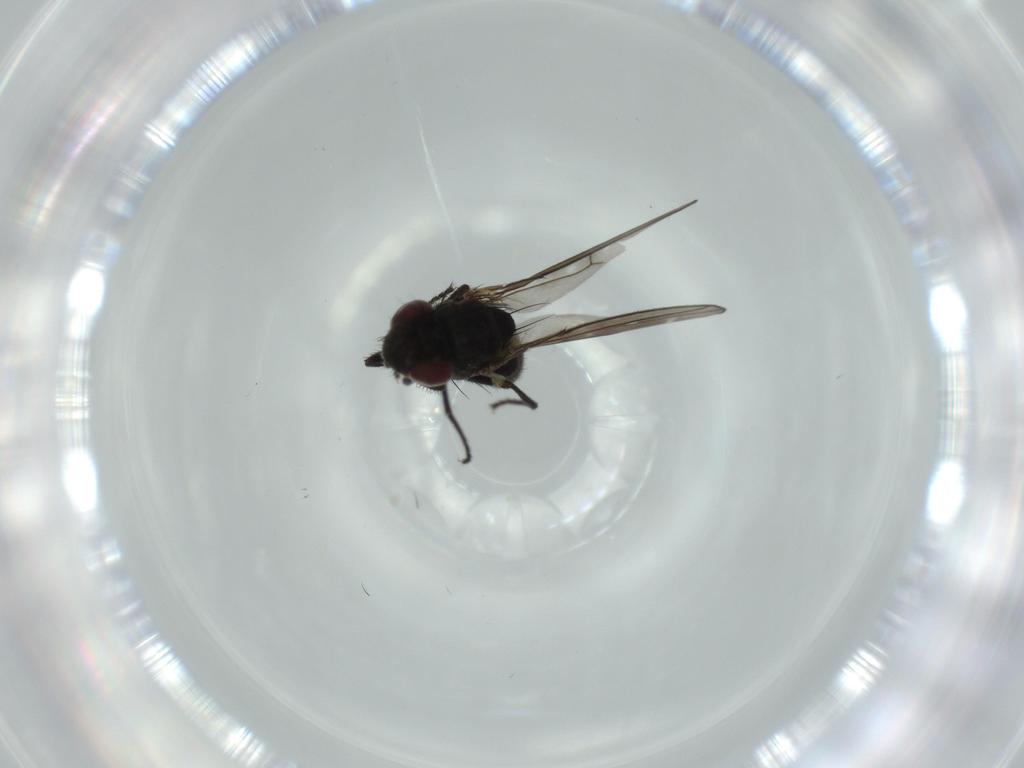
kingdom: Animalia
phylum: Arthropoda
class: Insecta
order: Diptera
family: Ephydridae
